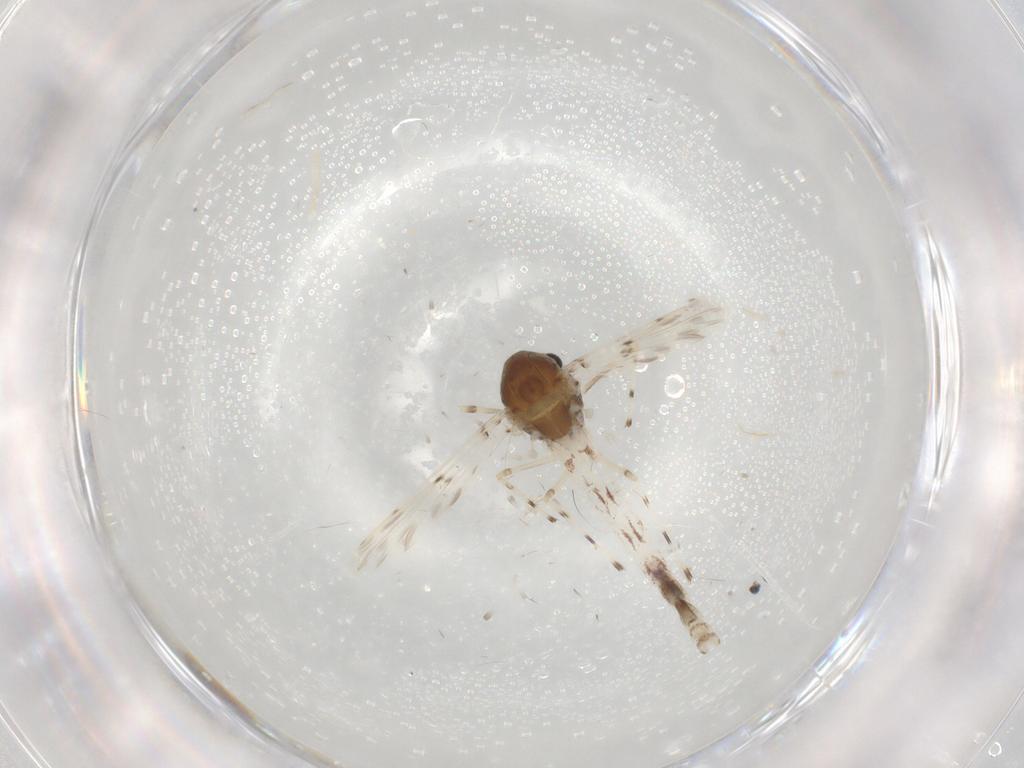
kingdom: Animalia
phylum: Arthropoda
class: Insecta
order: Diptera
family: Chironomidae
